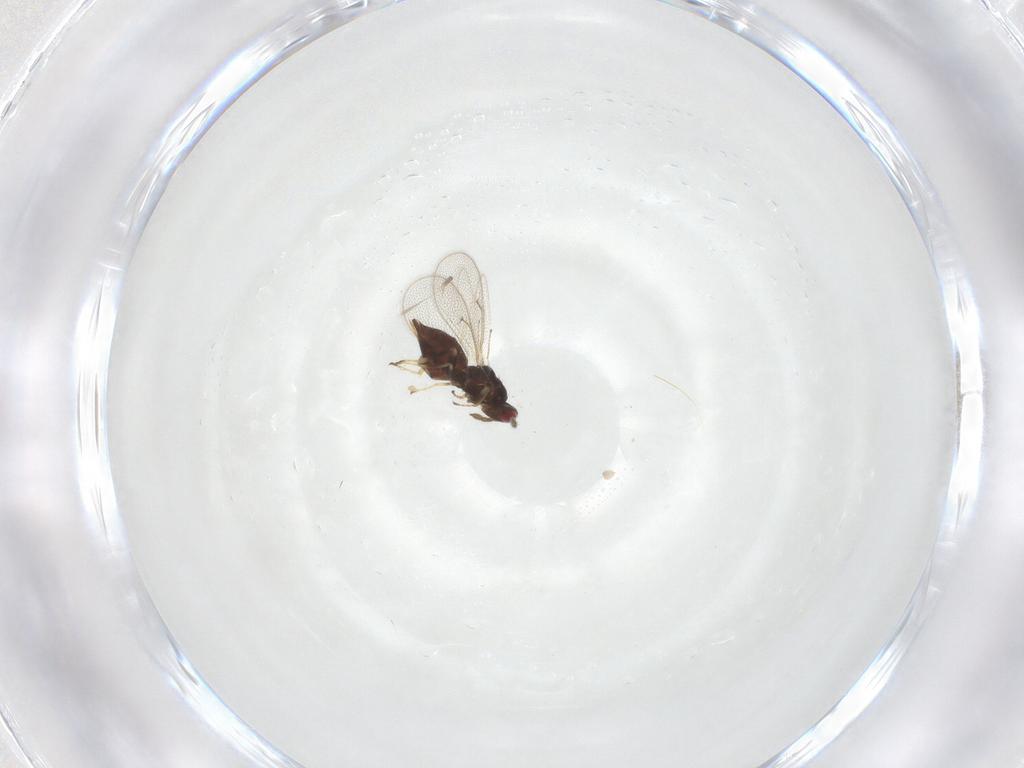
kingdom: Animalia
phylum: Arthropoda
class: Insecta
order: Hymenoptera
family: Eulophidae
